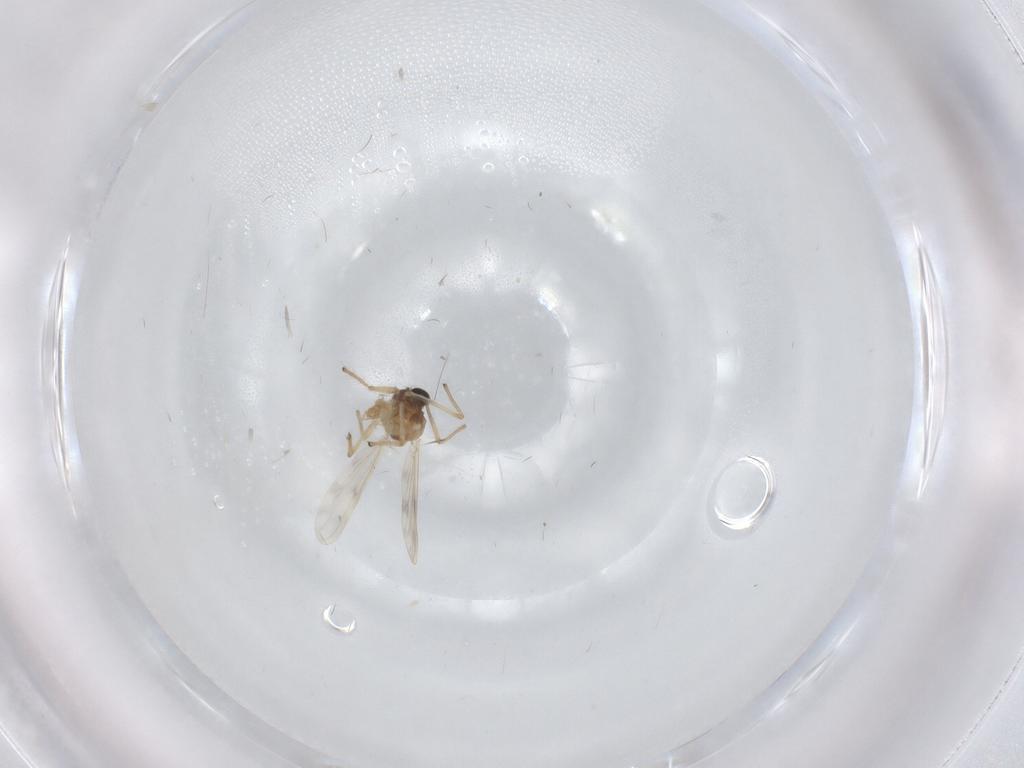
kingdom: Animalia
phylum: Arthropoda
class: Insecta
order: Diptera
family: Chironomidae
